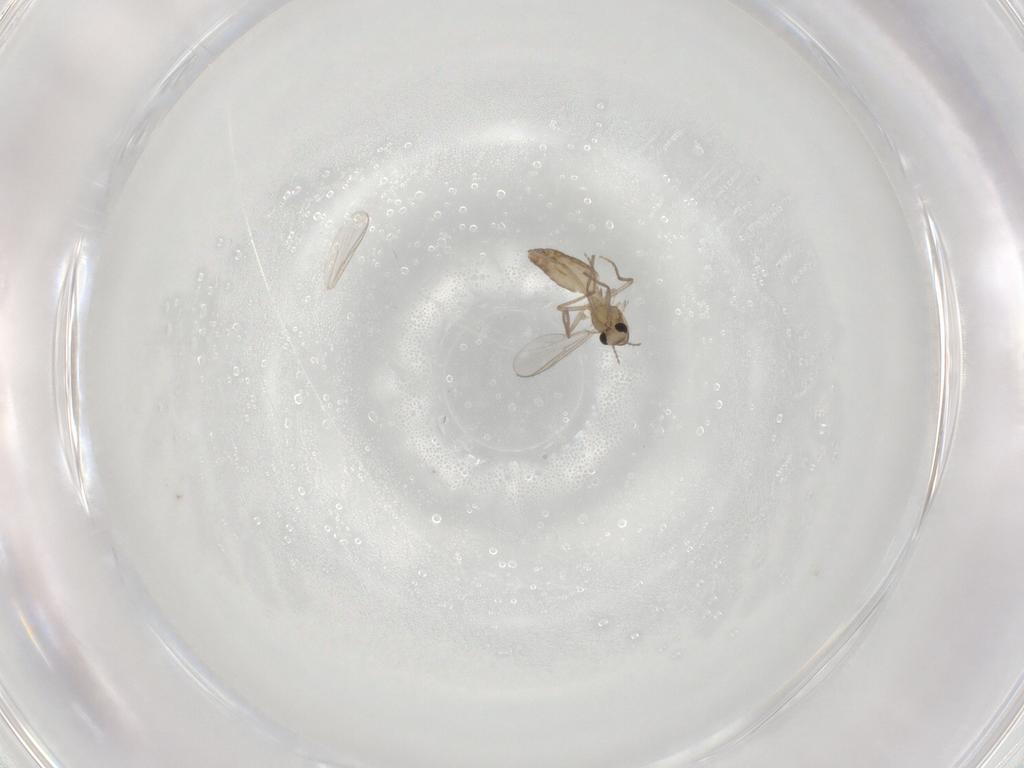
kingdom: Animalia
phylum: Arthropoda
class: Insecta
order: Diptera
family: Chironomidae
